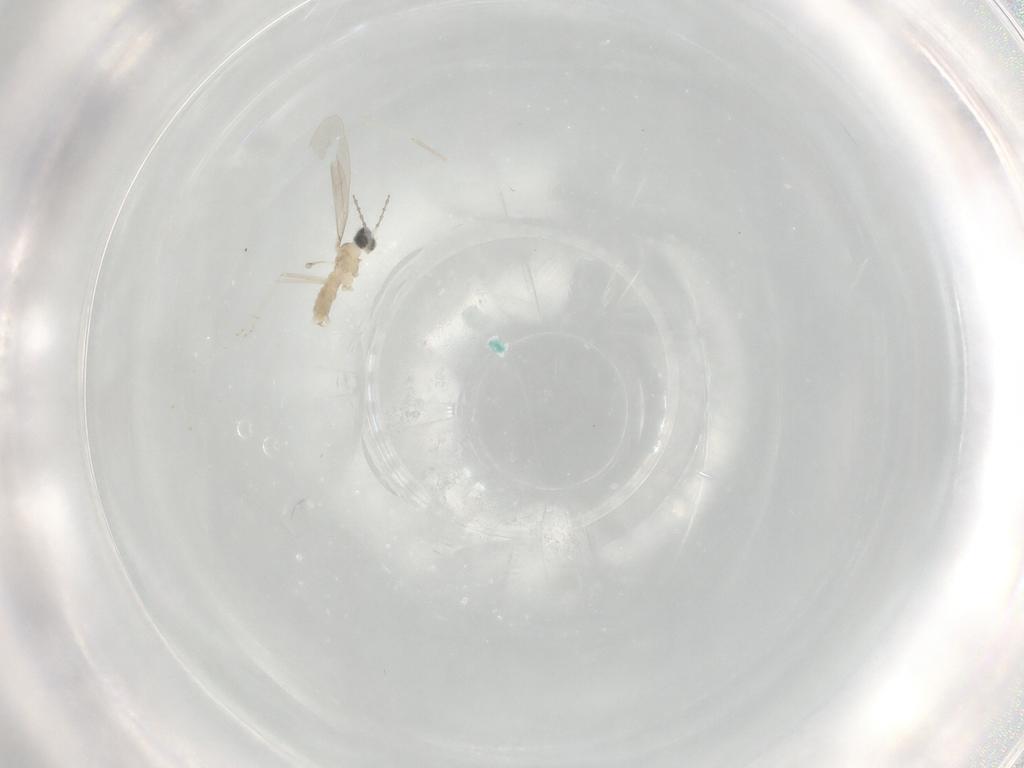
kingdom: Animalia
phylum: Arthropoda
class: Insecta
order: Diptera
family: Cecidomyiidae
